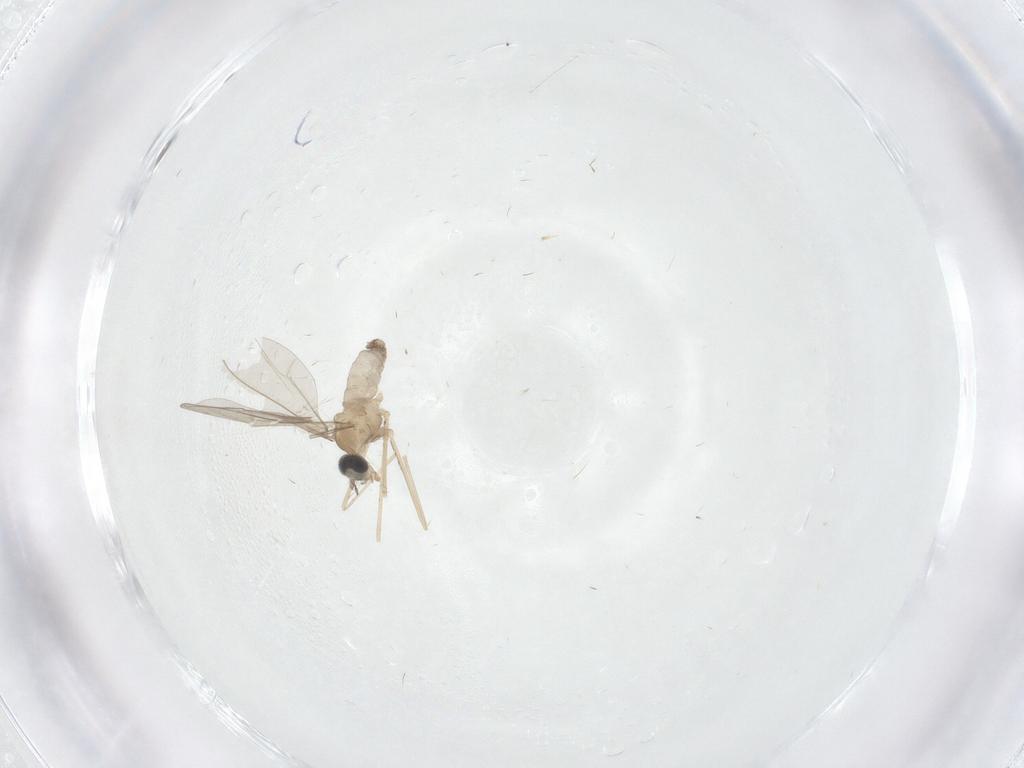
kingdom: Animalia
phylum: Arthropoda
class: Insecta
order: Diptera
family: Cecidomyiidae
